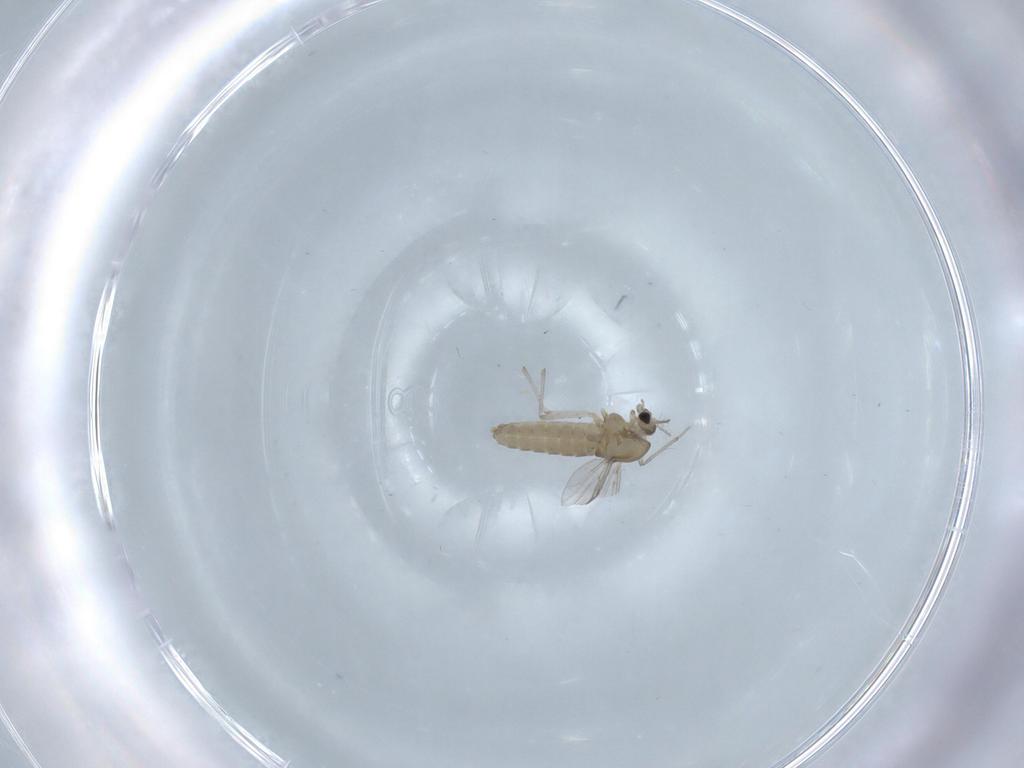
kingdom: Animalia
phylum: Arthropoda
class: Insecta
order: Diptera
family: Chironomidae
